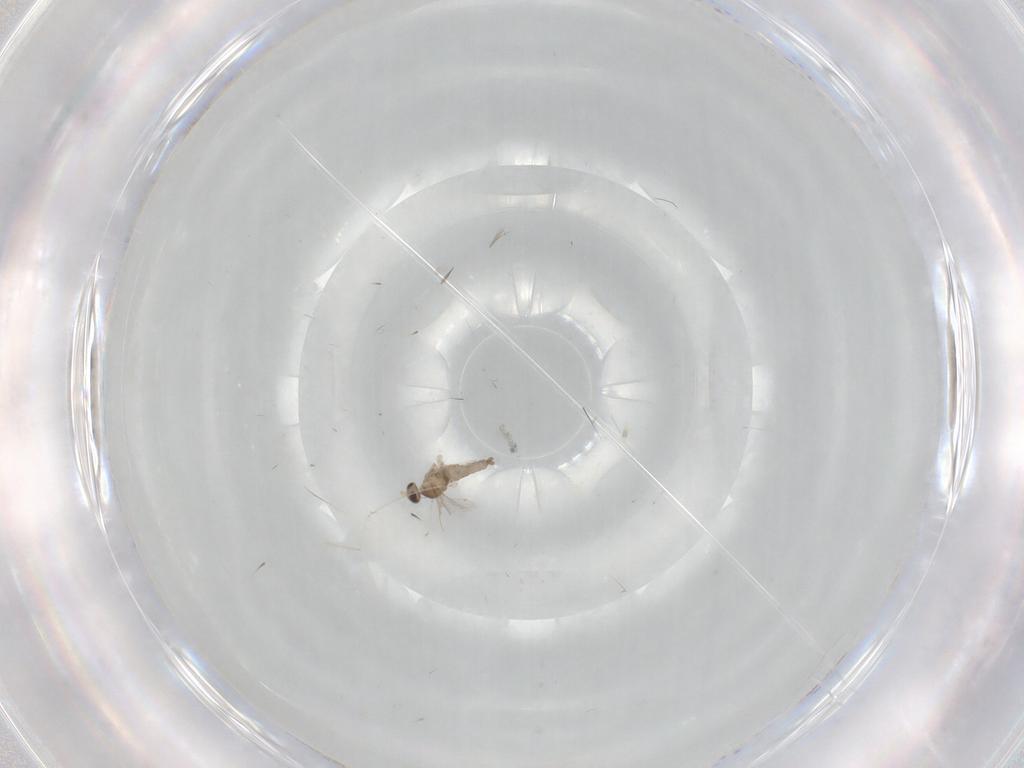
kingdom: Animalia
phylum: Arthropoda
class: Insecta
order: Diptera
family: Cecidomyiidae
